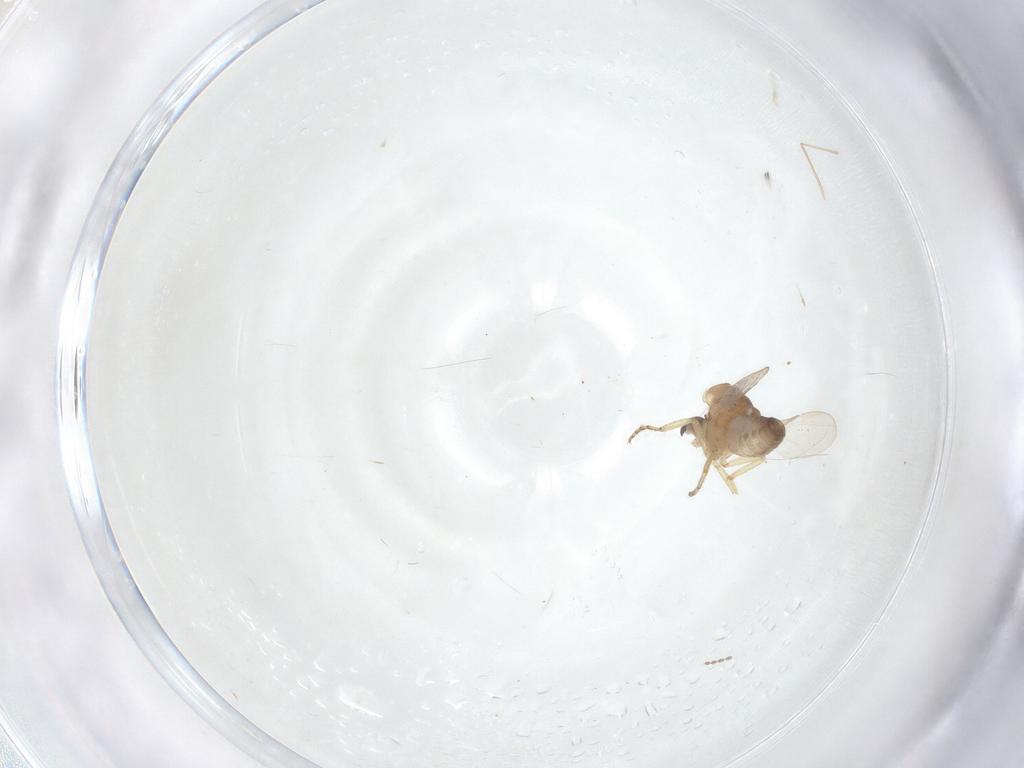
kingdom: Animalia
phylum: Arthropoda
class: Insecta
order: Diptera
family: Ceratopogonidae
